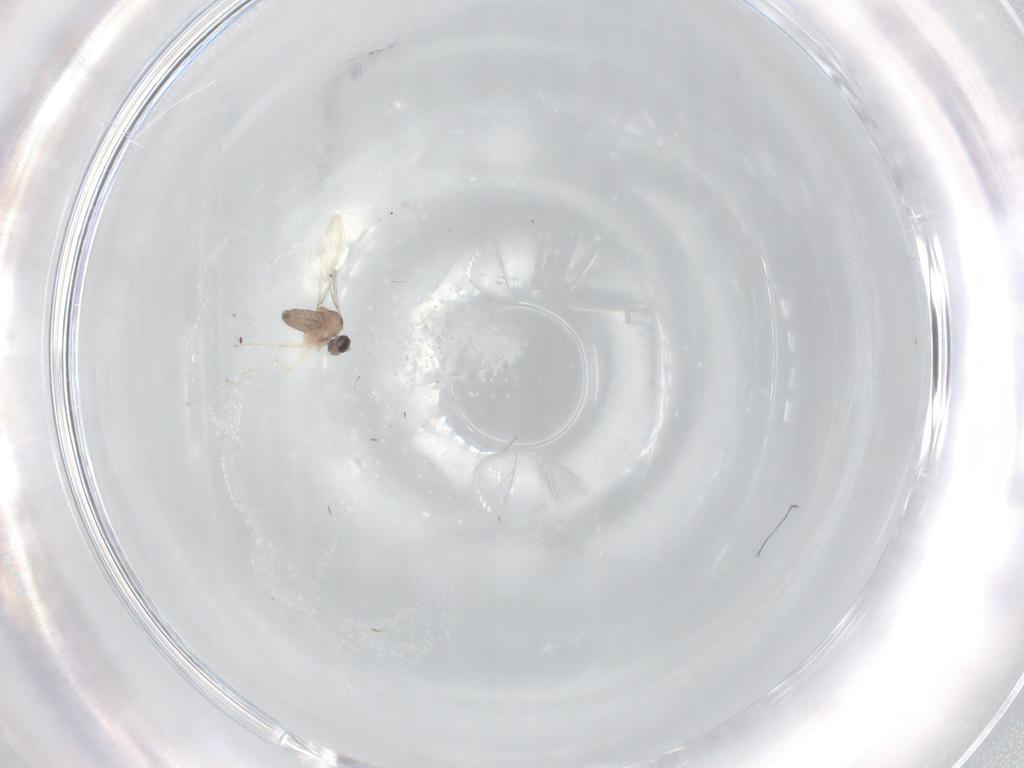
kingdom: Animalia
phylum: Arthropoda
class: Insecta
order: Diptera
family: Cecidomyiidae
